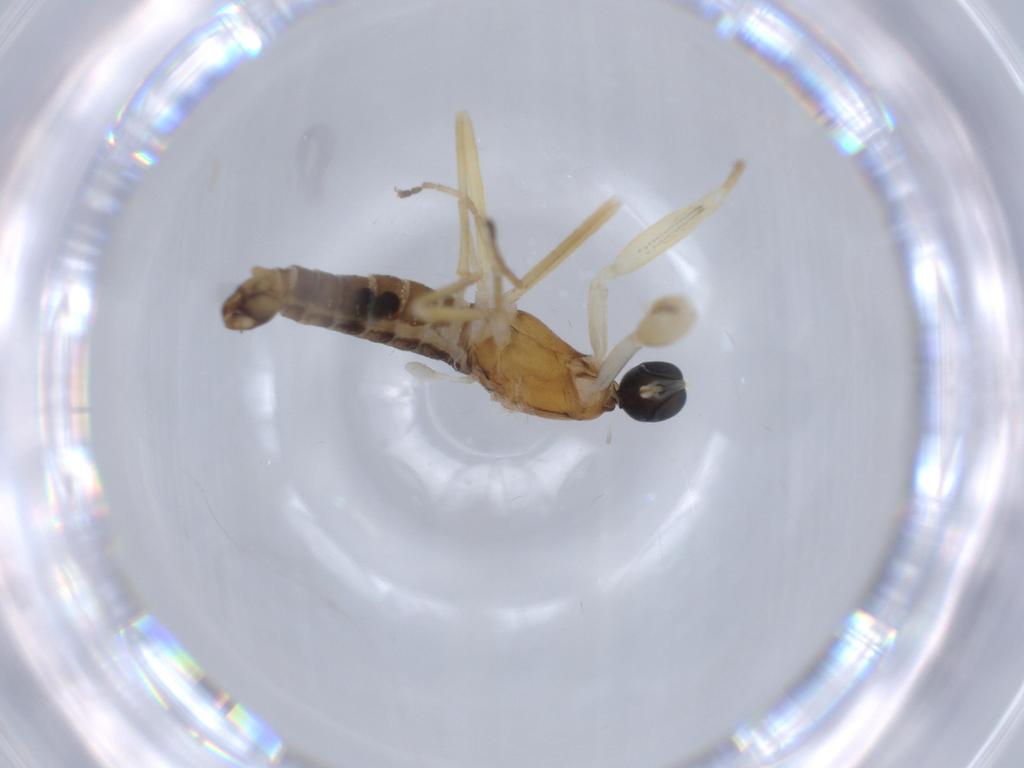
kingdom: Animalia
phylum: Arthropoda
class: Insecta
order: Diptera
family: Empididae
